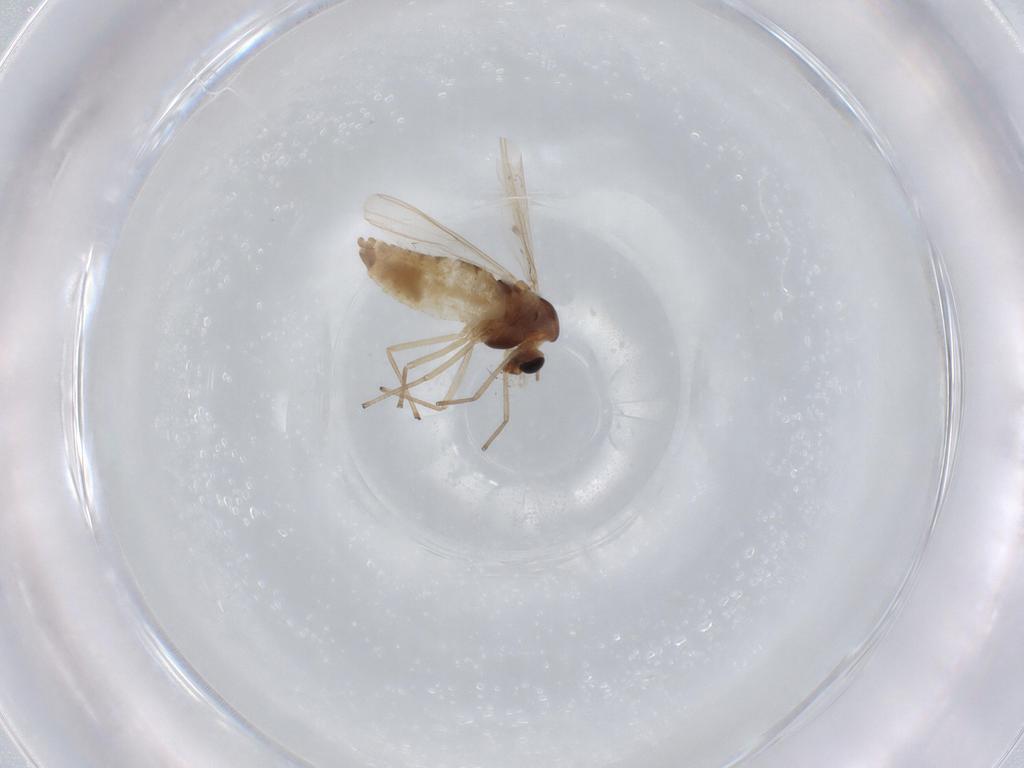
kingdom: Animalia
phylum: Arthropoda
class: Insecta
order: Diptera
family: Chironomidae
